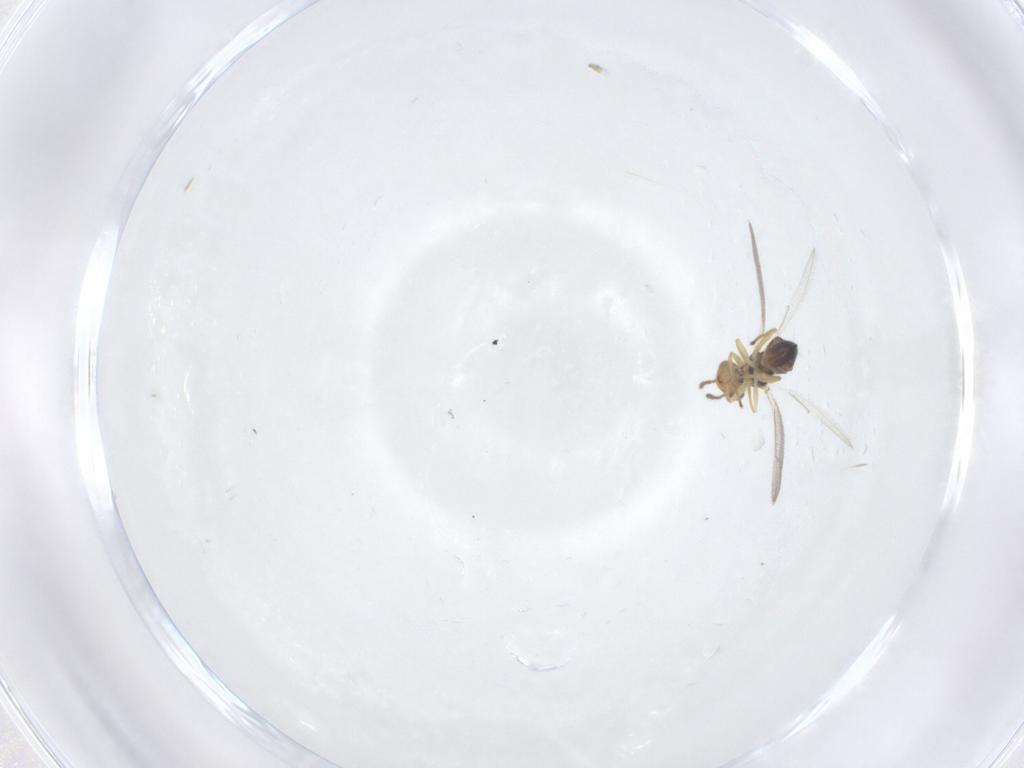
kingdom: Animalia
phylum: Arthropoda
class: Insecta
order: Hymenoptera
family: Eulophidae
